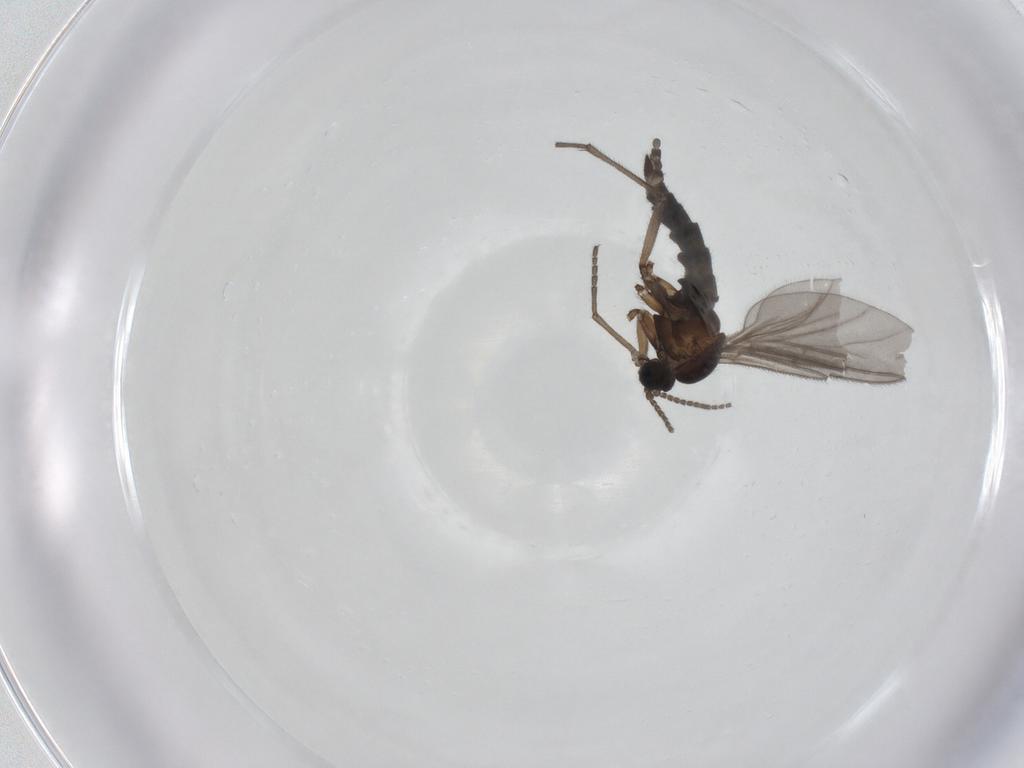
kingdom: Animalia
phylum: Arthropoda
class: Insecta
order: Diptera
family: Sciaridae
